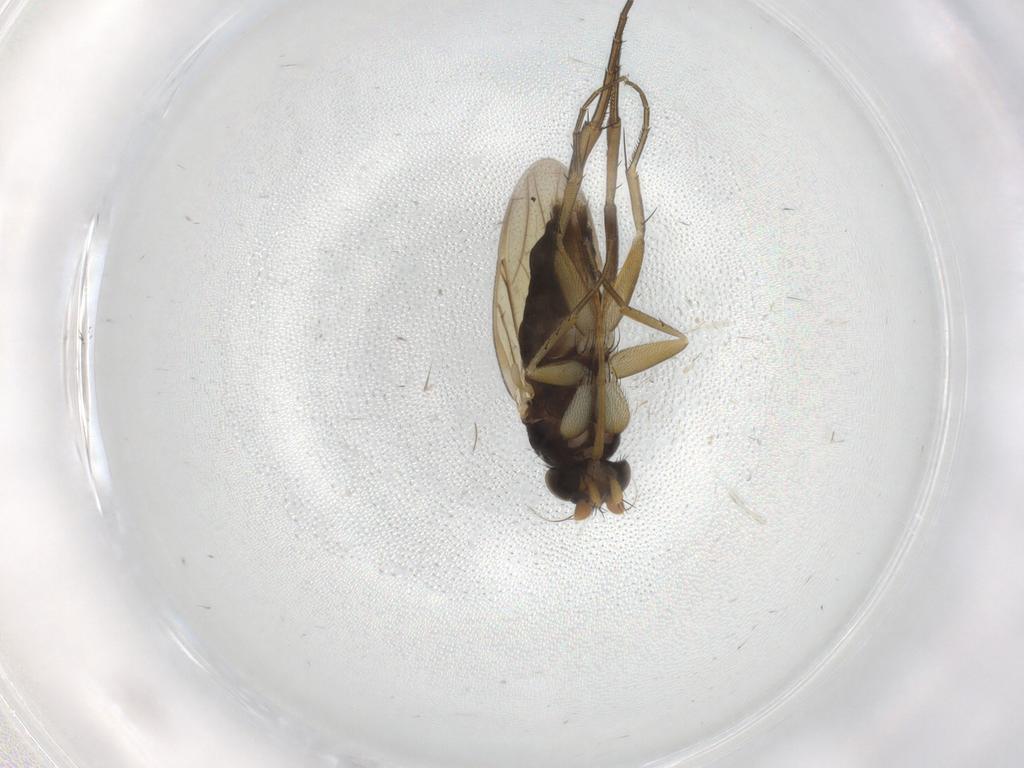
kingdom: Animalia
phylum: Arthropoda
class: Insecta
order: Diptera
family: Phoridae
